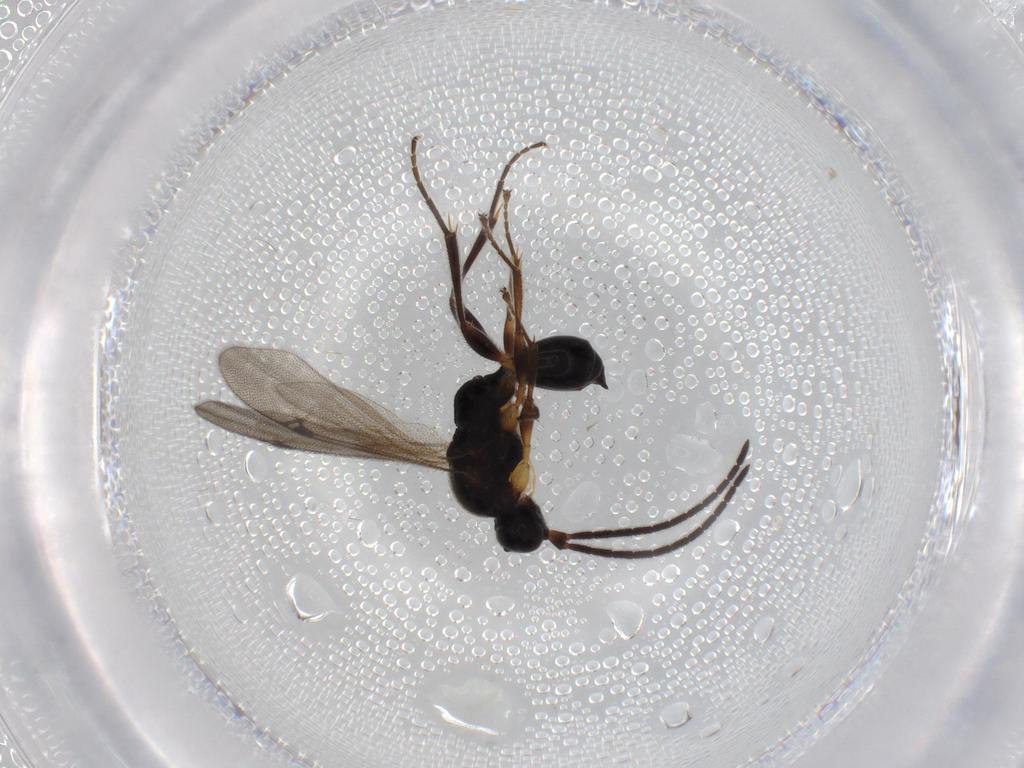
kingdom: Animalia
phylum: Arthropoda
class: Insecta
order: Hymenoptera
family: Proctotrupidae
